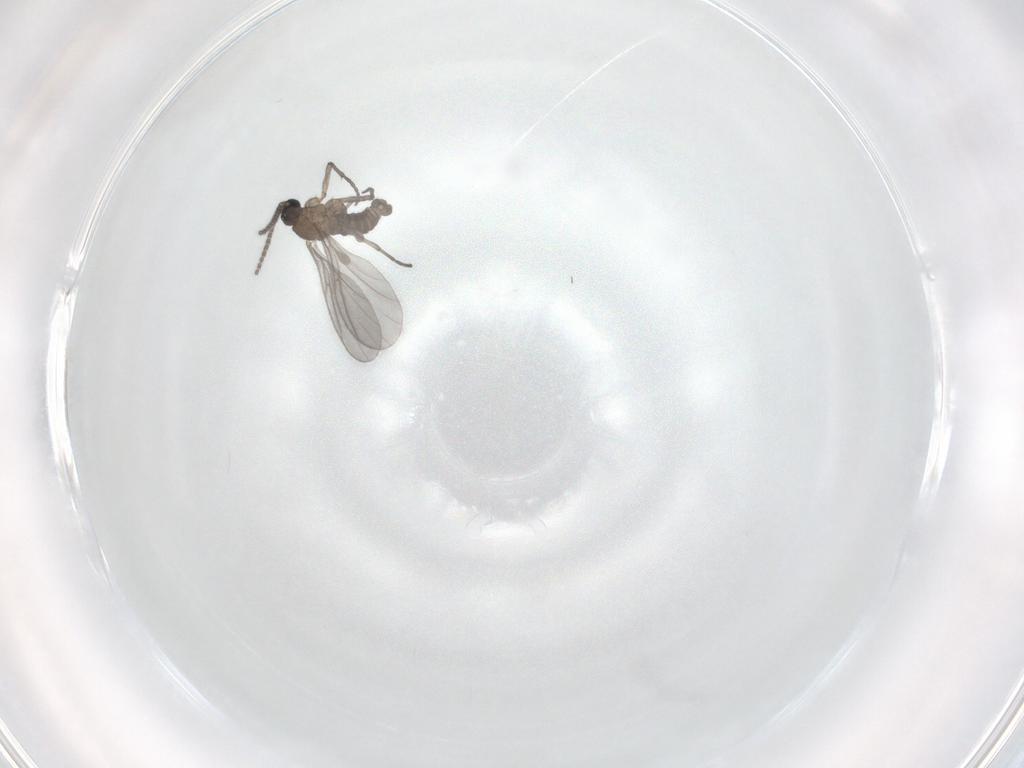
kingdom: Animalia
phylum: Arthropoda
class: Insecta
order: Diptera
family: Sciaridae
